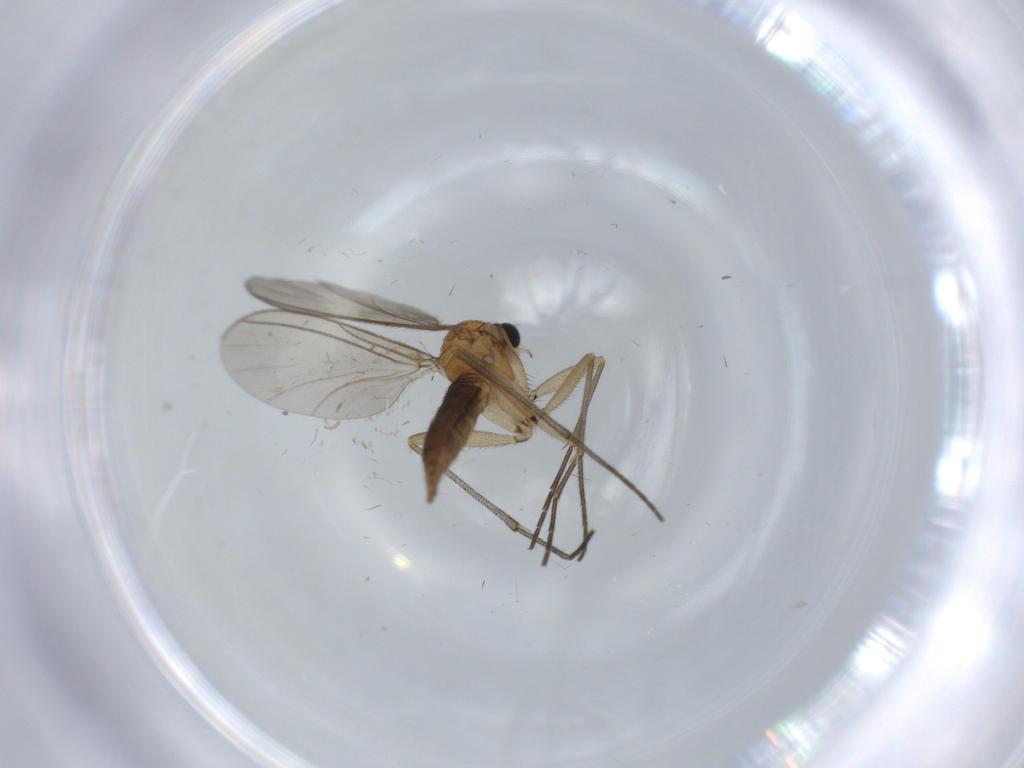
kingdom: Animalia
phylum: Arthropoda
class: Insecta
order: Diptera
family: Sciaridae
